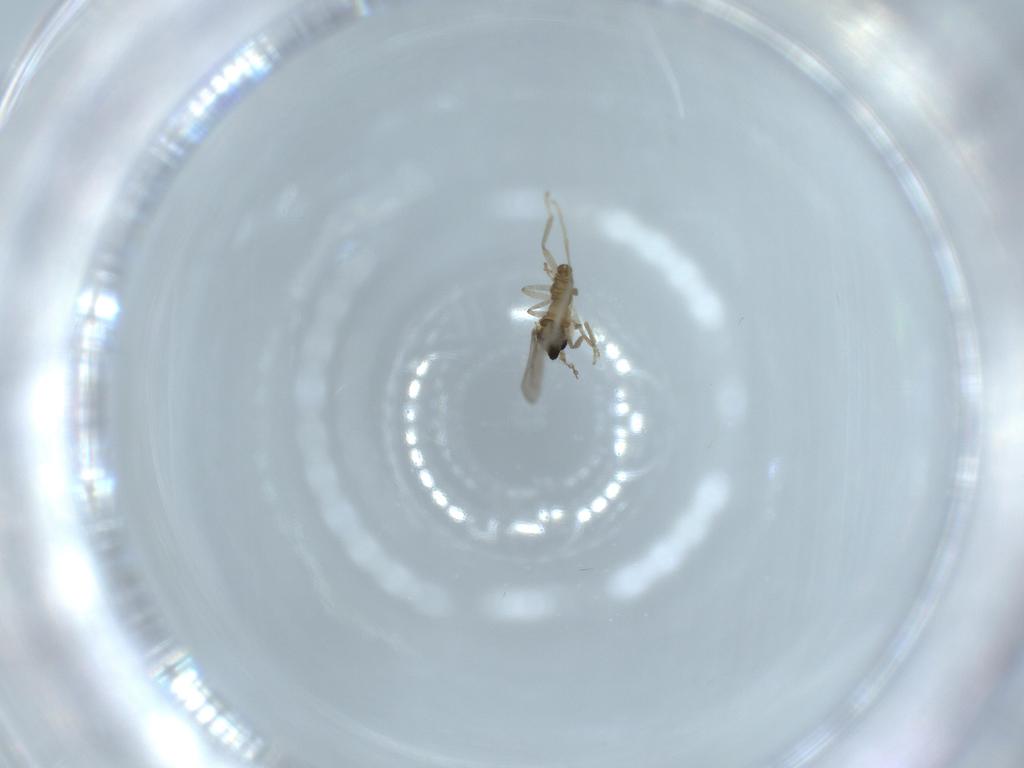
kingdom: Animalia
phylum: Arthropoda
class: Insecta
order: Diptera
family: Cecidomyiidae
